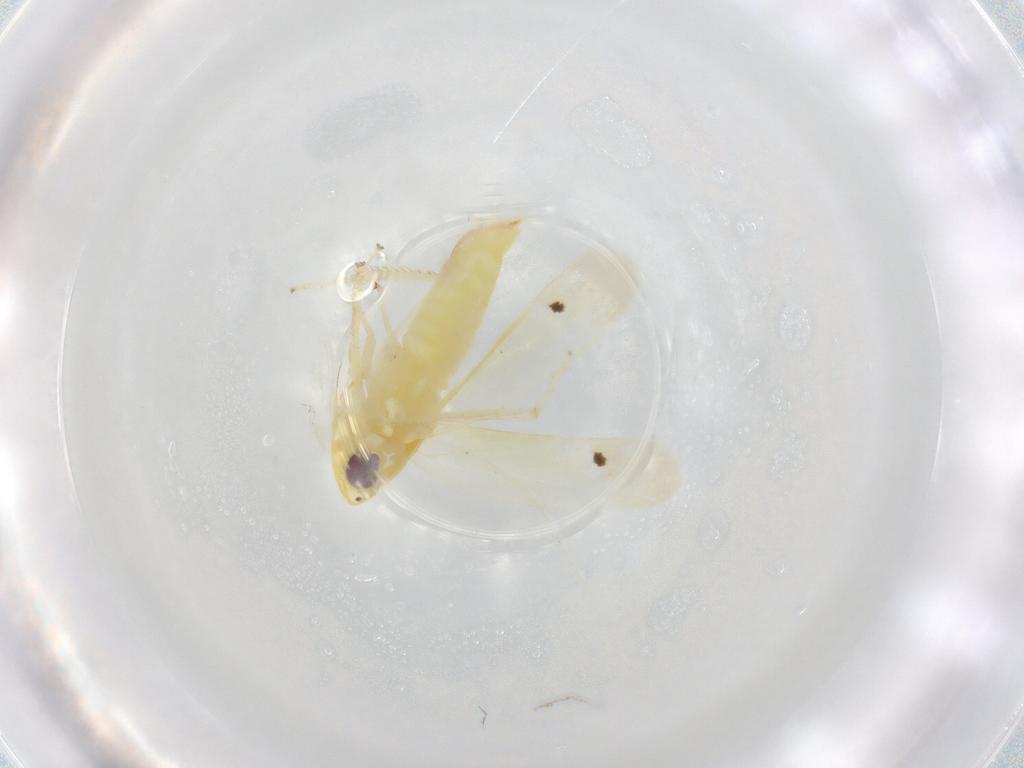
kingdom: Animalia
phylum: Arthropoda
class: Insecta
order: Hemiptera
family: Cicadellidae
